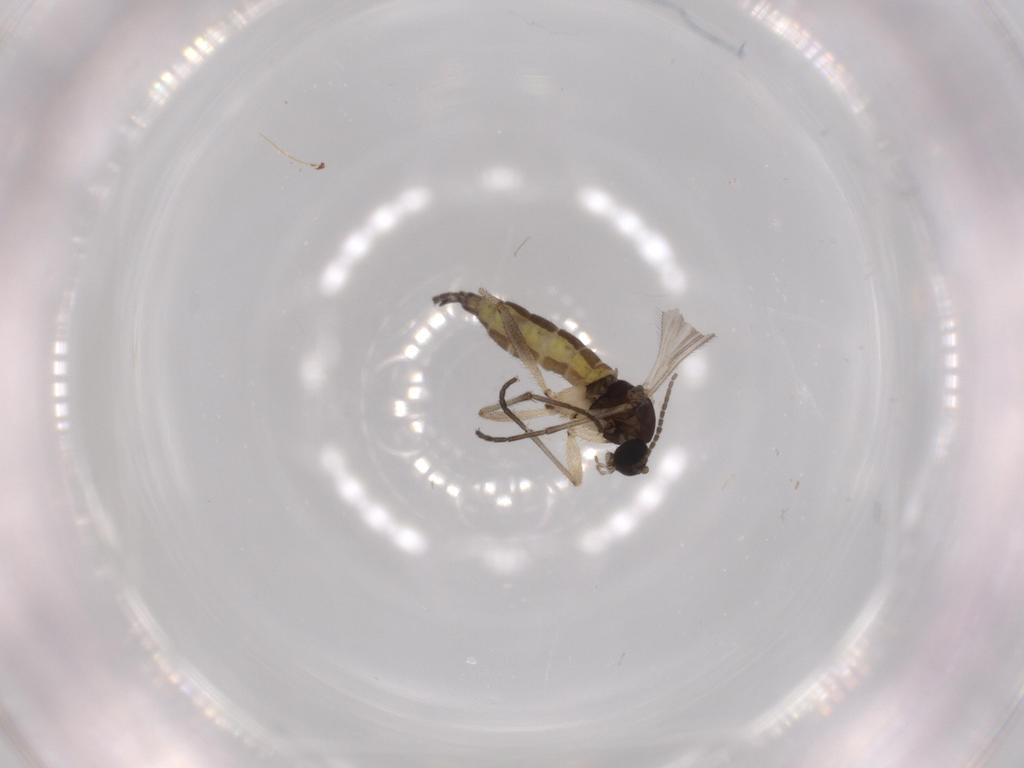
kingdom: Animalia
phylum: Arthropoda
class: Insecta
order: Diptera
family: Sciaridae
